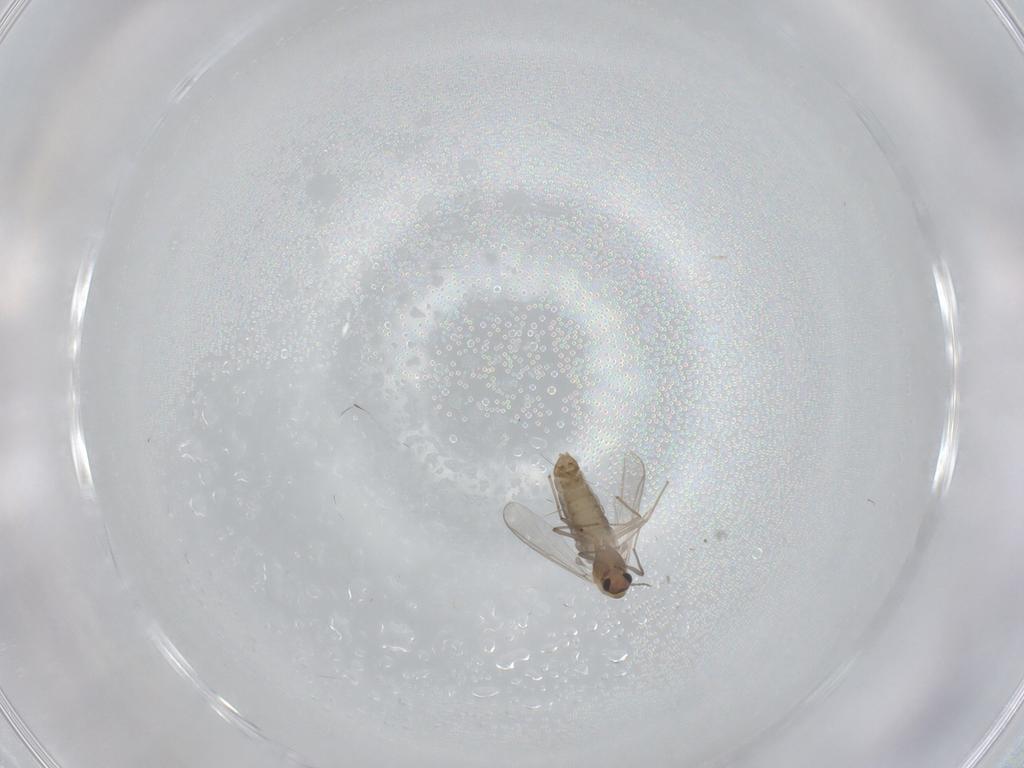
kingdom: Animalia
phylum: Arthropoda
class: Insecta
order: Diptera
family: Chironomidae
